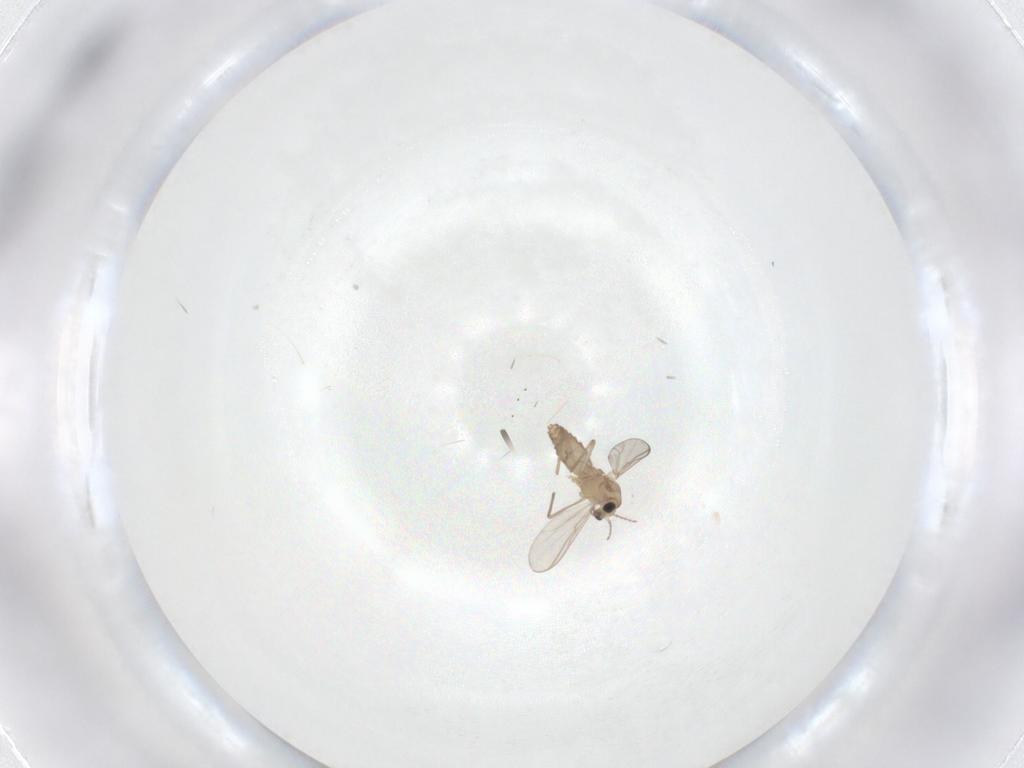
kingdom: Animalia
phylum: Arthropoda
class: Insecta
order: Diptera
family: Chironomidae
